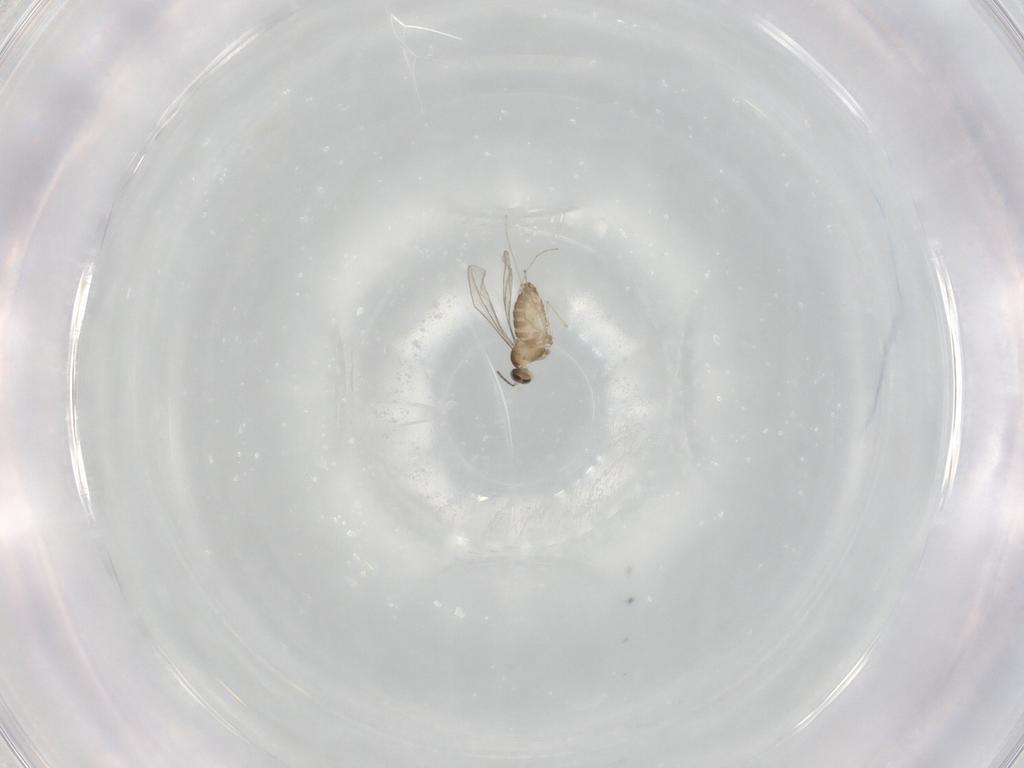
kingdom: Animalia
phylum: Arthropoda
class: Insecta
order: Diptera
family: Cecidomyiidae
